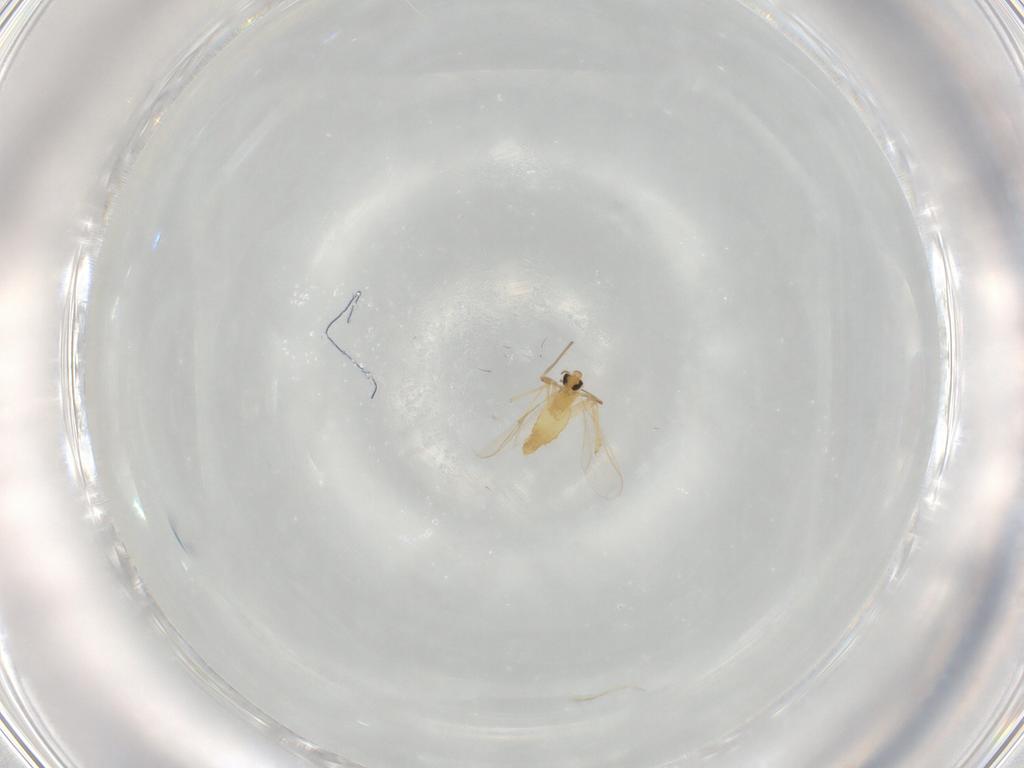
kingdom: Animalia
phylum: Arthropoda
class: Insecta
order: Diptera
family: Chironomidae
